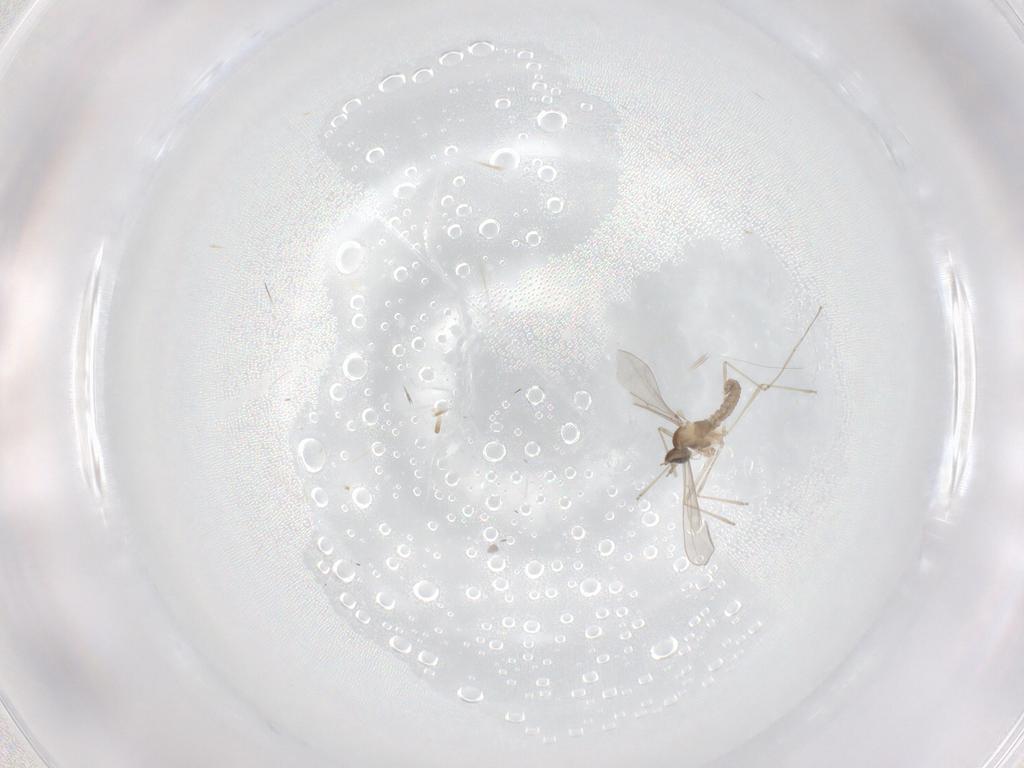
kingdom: Animalia
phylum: Arthropoda
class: Insecta
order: Diptera
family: Cecidomyiidae
